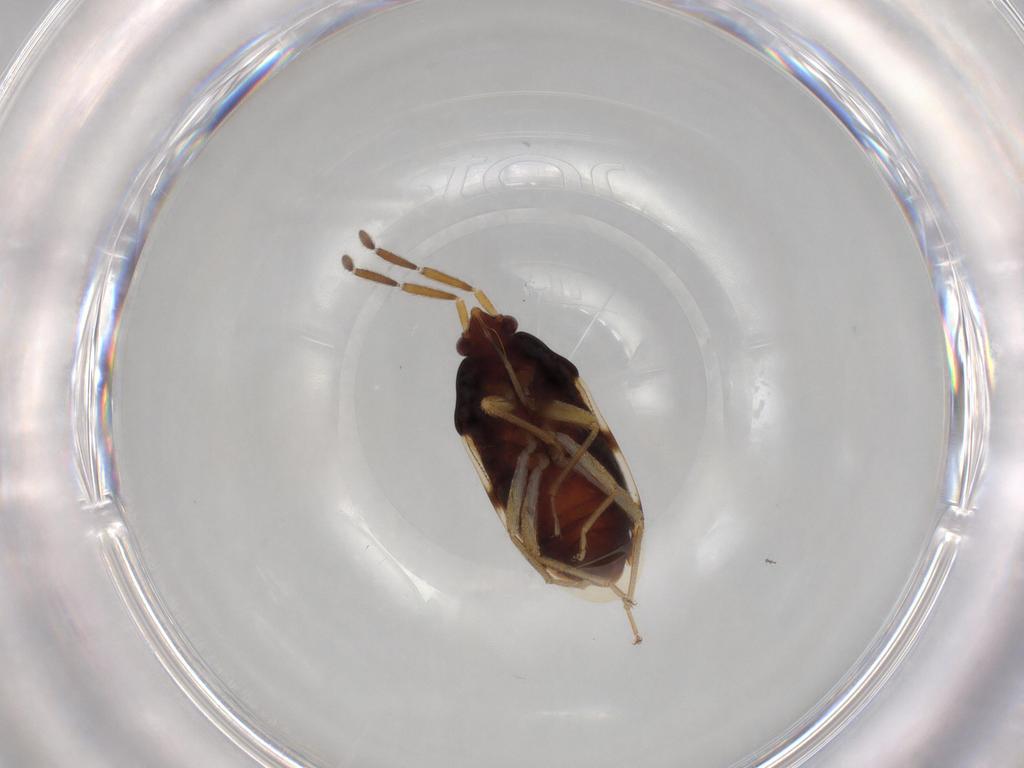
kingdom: Animalia
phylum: Arthropoda
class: Insecta
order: Hemiptera
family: Rhyparochromidae
